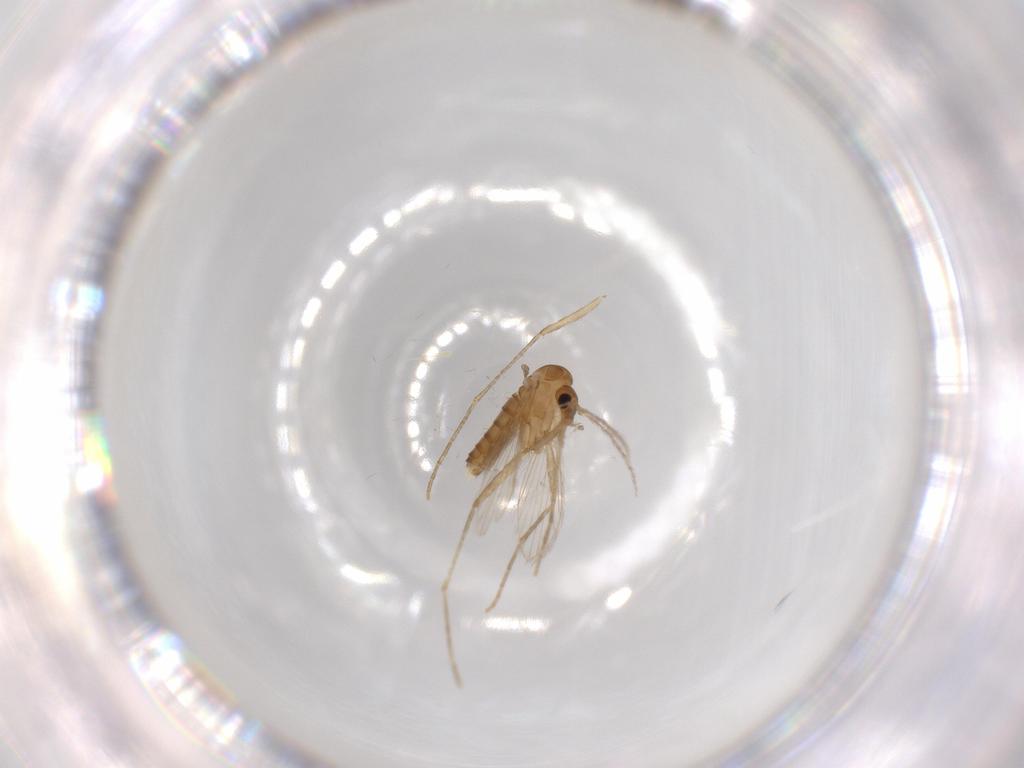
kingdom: Animalia
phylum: Arthropoda
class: Insecta
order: Diptera
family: Psychodidae
